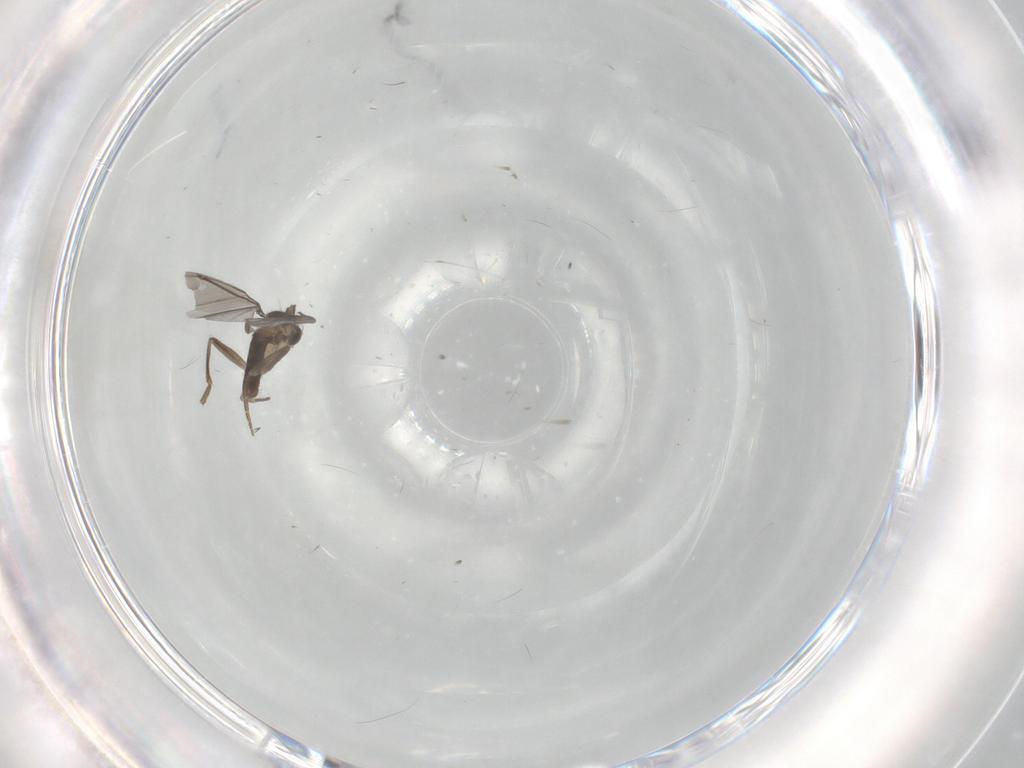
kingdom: Animalia
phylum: Arthropoda
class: Insecta
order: Diptera
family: Phoridae
